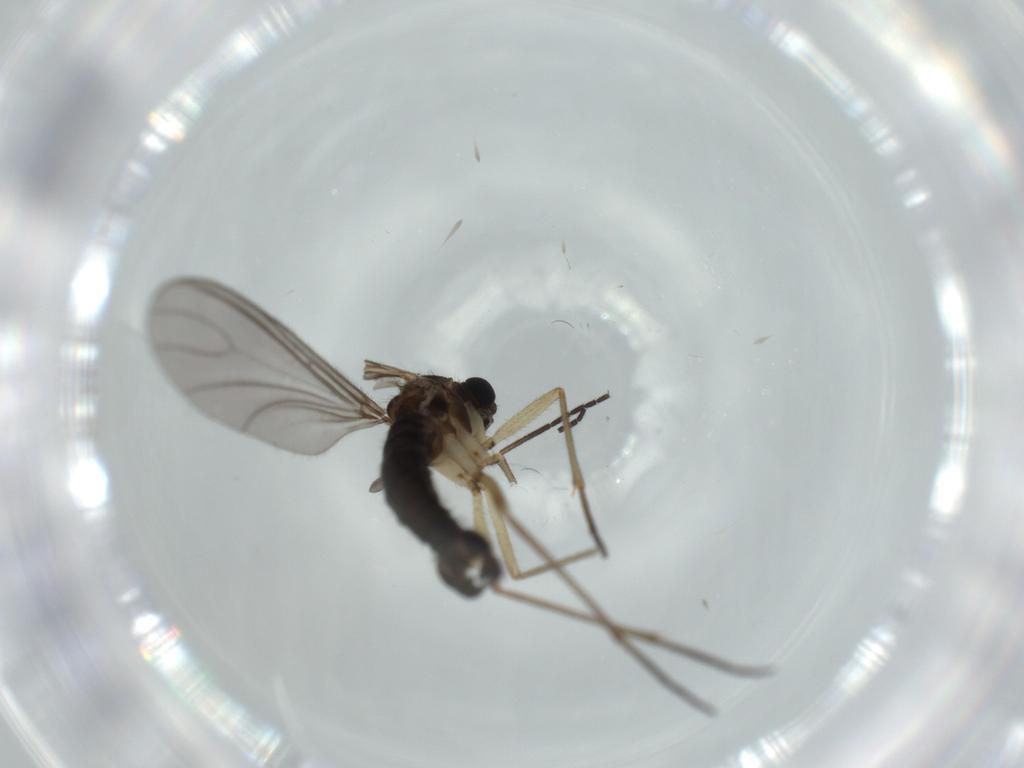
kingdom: Animalia
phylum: Arthropoda
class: Insecta
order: Diptera
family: Sciaridae
